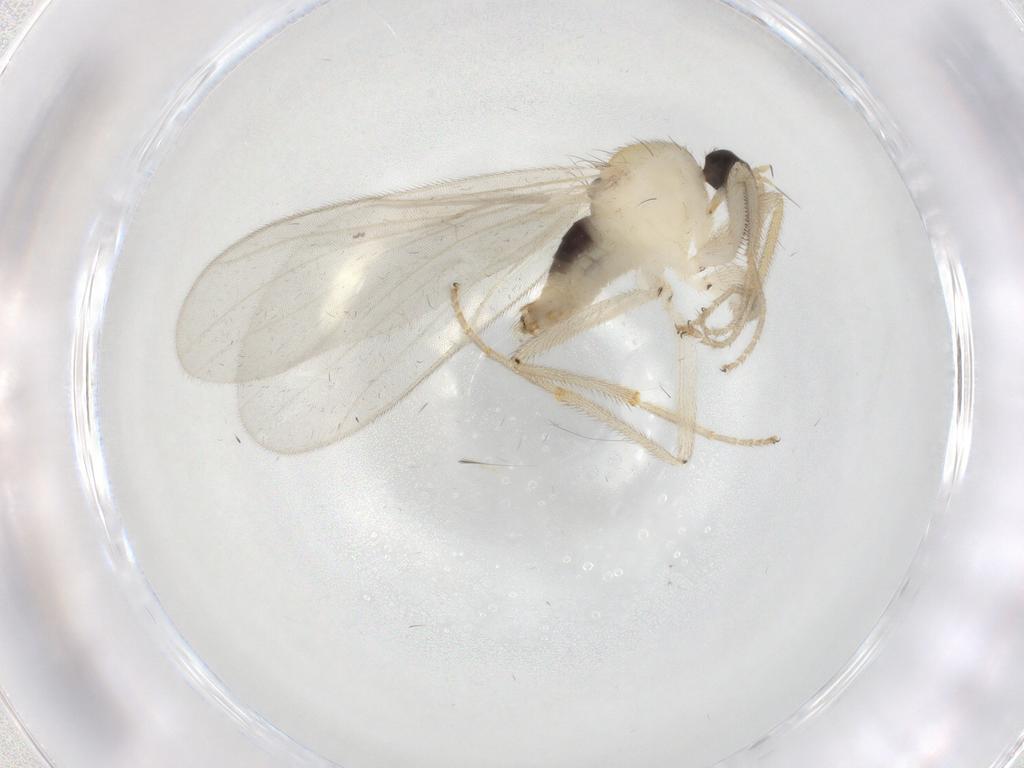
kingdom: Animalia
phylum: Arthropoda
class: Insecta
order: Diptera
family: Hybotidae
